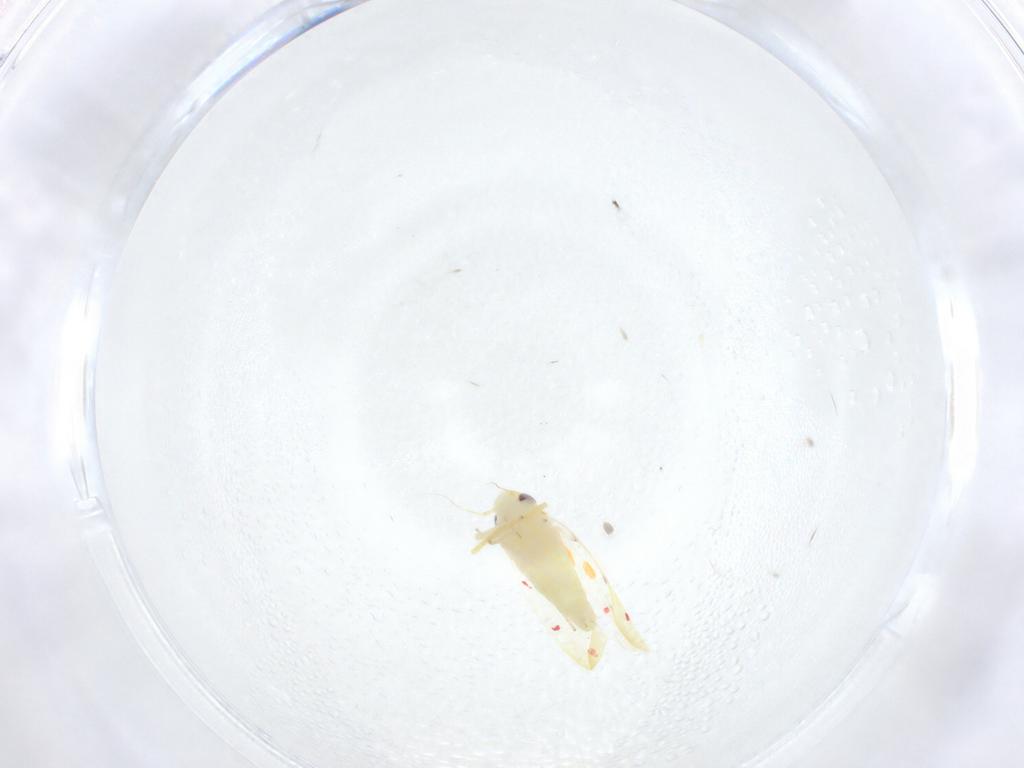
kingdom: Animalia
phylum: Arthropoda
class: Insecta
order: Hemiptera
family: Cicadellidae
